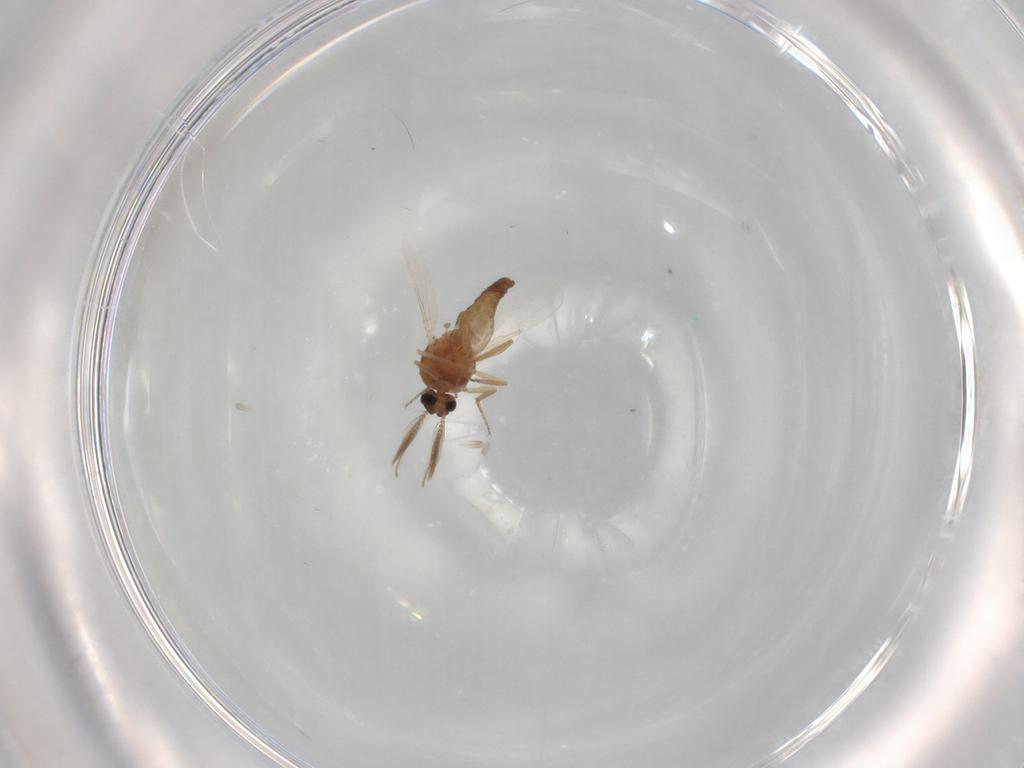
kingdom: Animalia
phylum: Arthropoda
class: Insecta
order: Diptera
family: Ceratopogonidae
